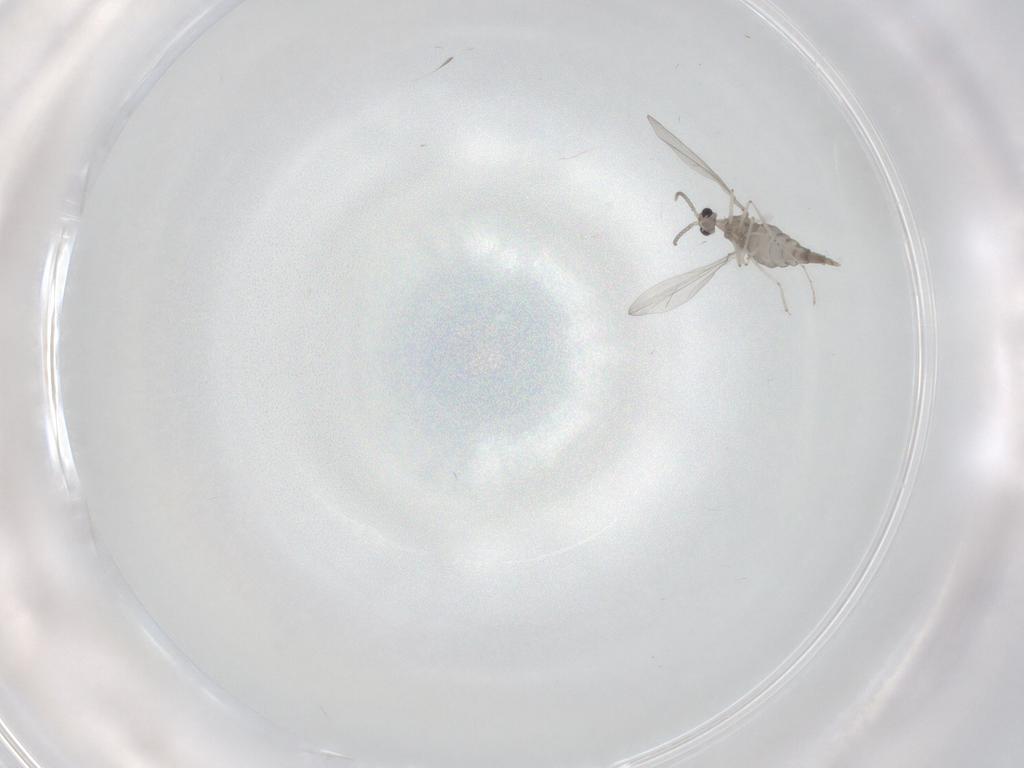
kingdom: Animalia
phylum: Arthropoda
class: Insecta
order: Diptera
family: Cecidomyiidae
